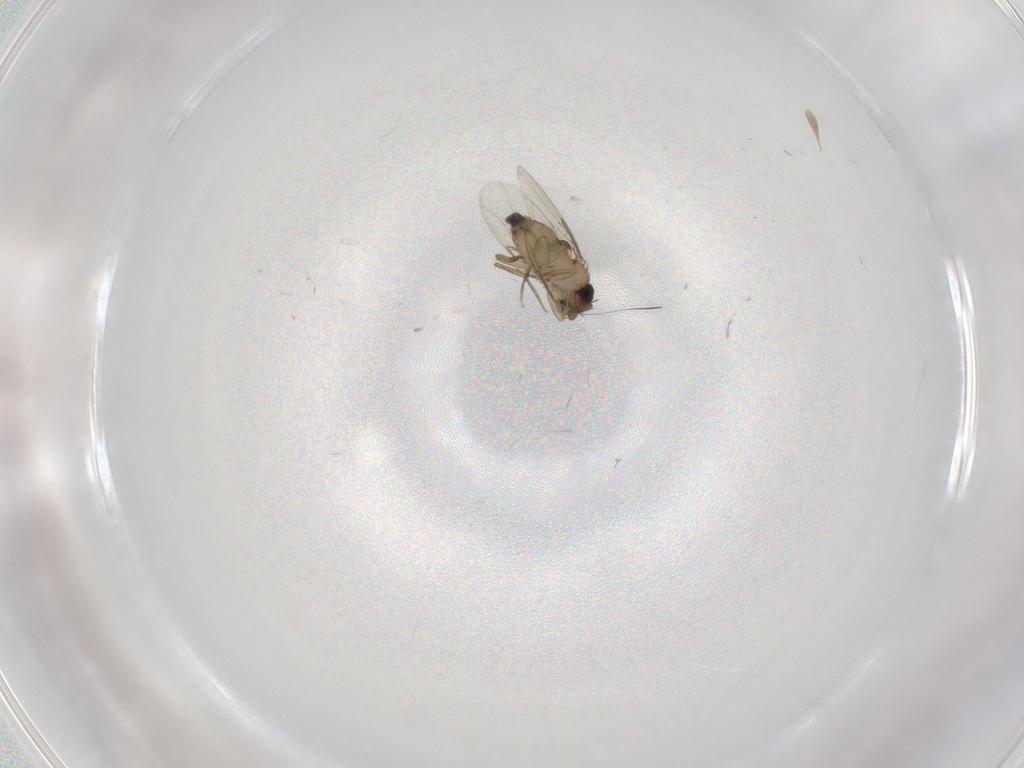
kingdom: Animalia
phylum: Arthropoda
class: Insecta
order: Diptera
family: Phoridae
